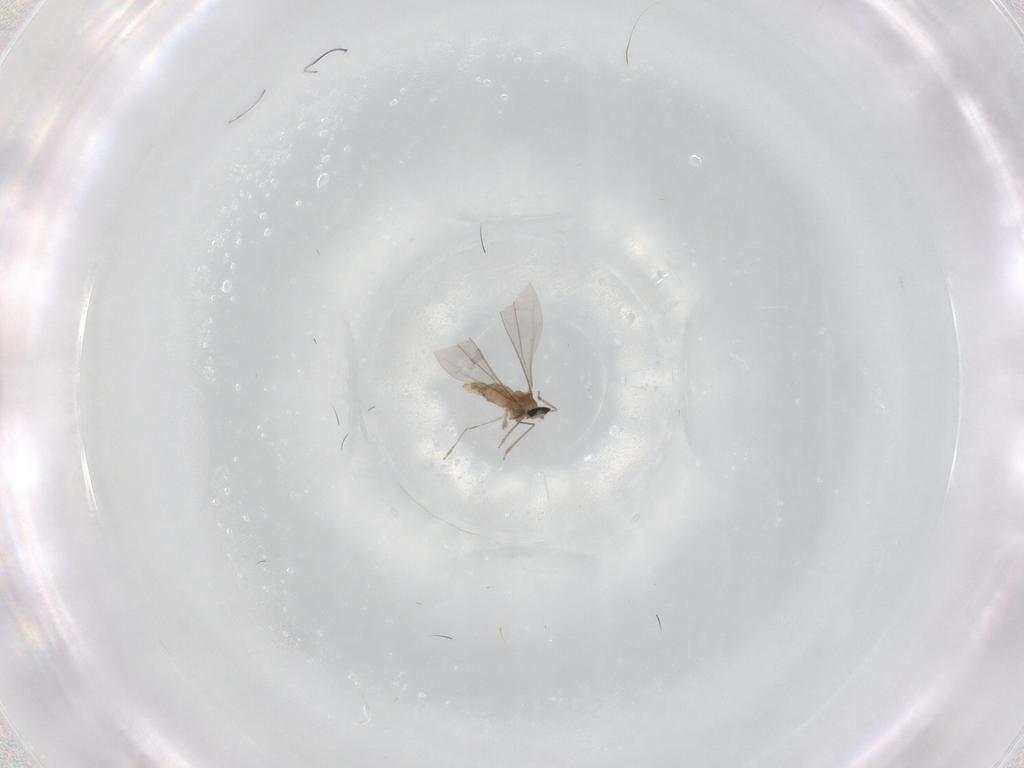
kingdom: Animalia
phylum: Arthropoda
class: Insecta
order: Diptera
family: Cecidomyiidae
